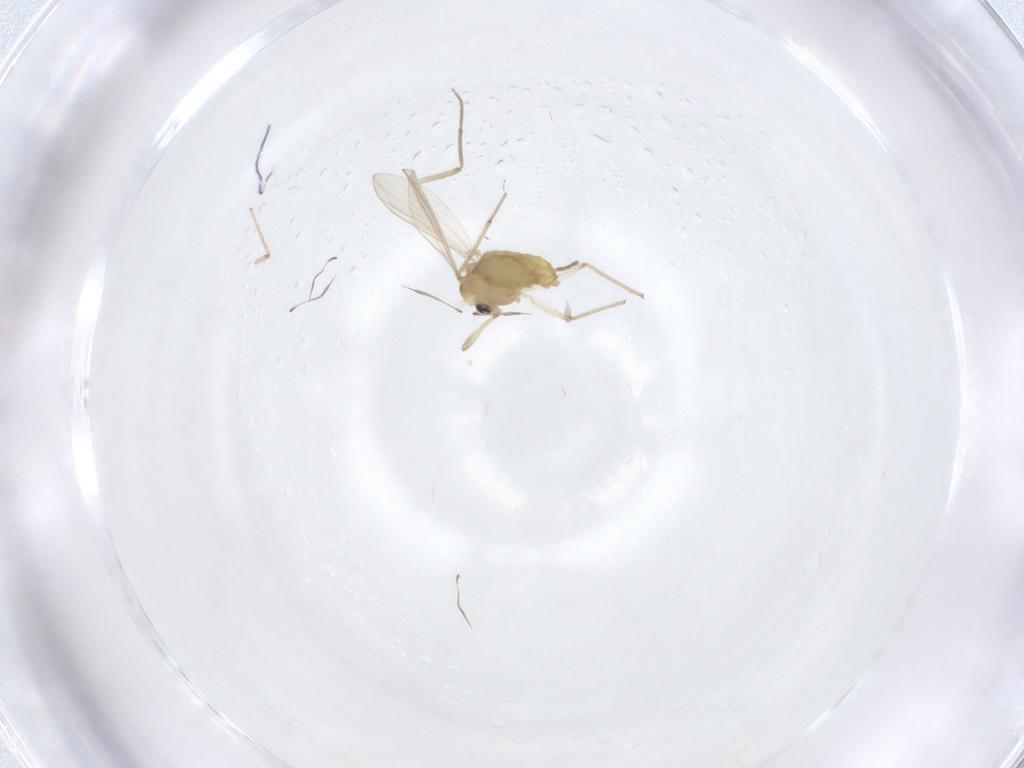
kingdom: Animalia
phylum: Arthropoda
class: Insecta
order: Diptera
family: Chironomidae
